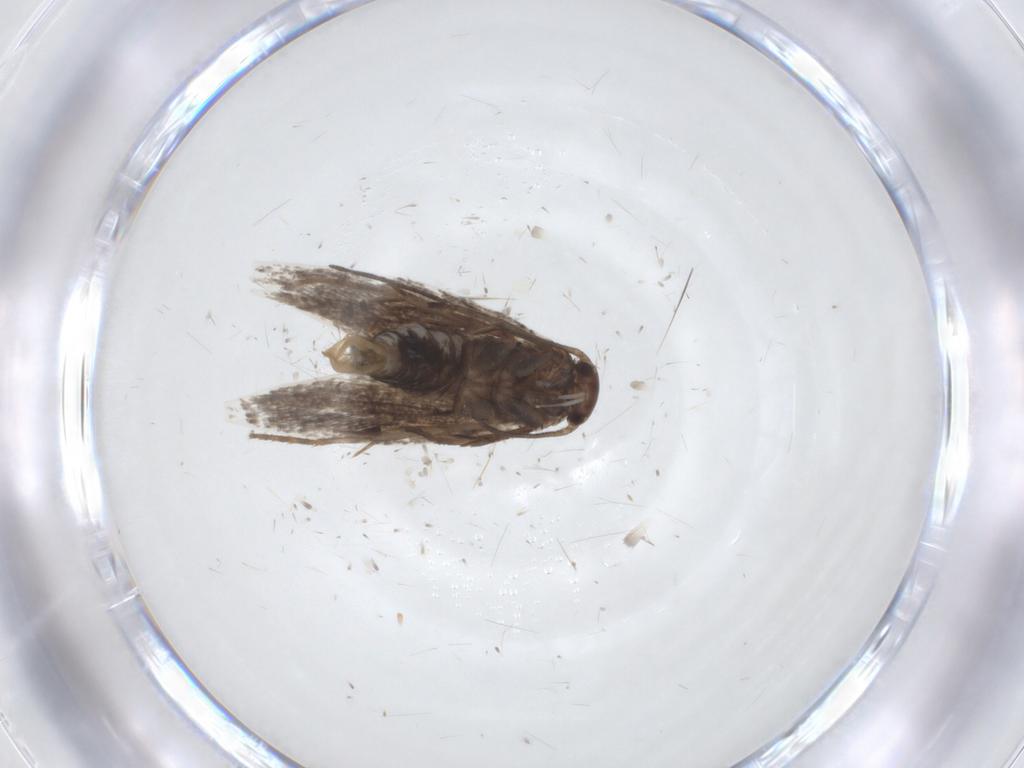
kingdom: Animalia
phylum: Arthropoda
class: Insecta
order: Lepidoptera
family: Elachistidae
